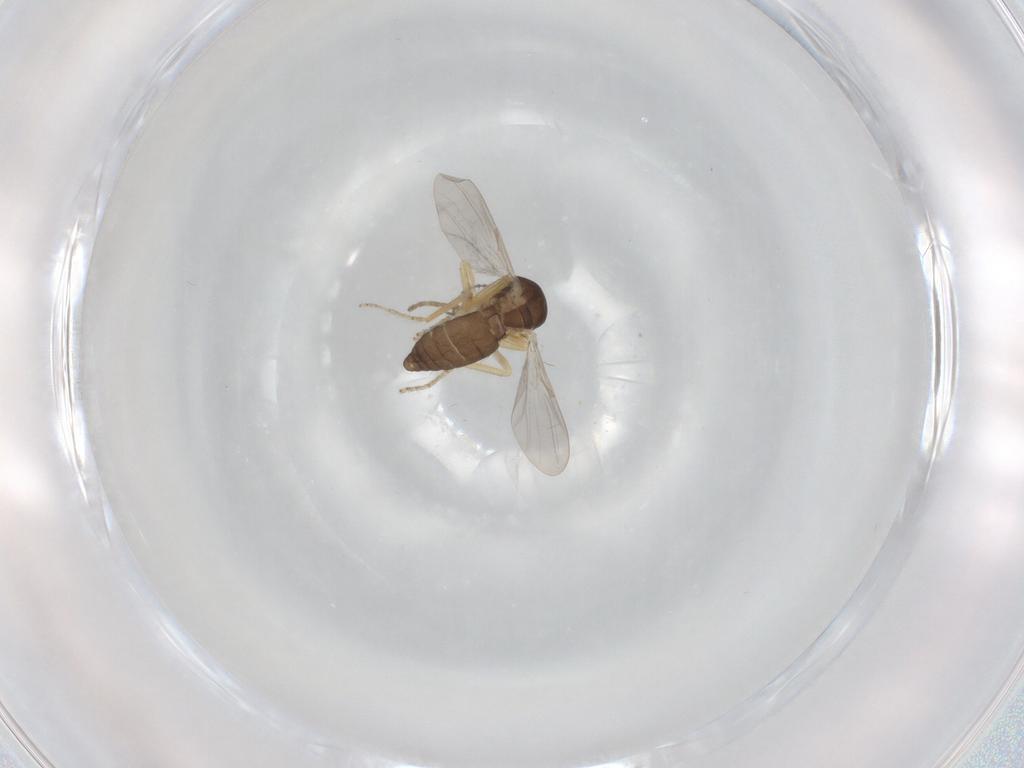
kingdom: Animalia
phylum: Arthropoda
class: Insecta
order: Diptera
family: Ceratopogonidae
